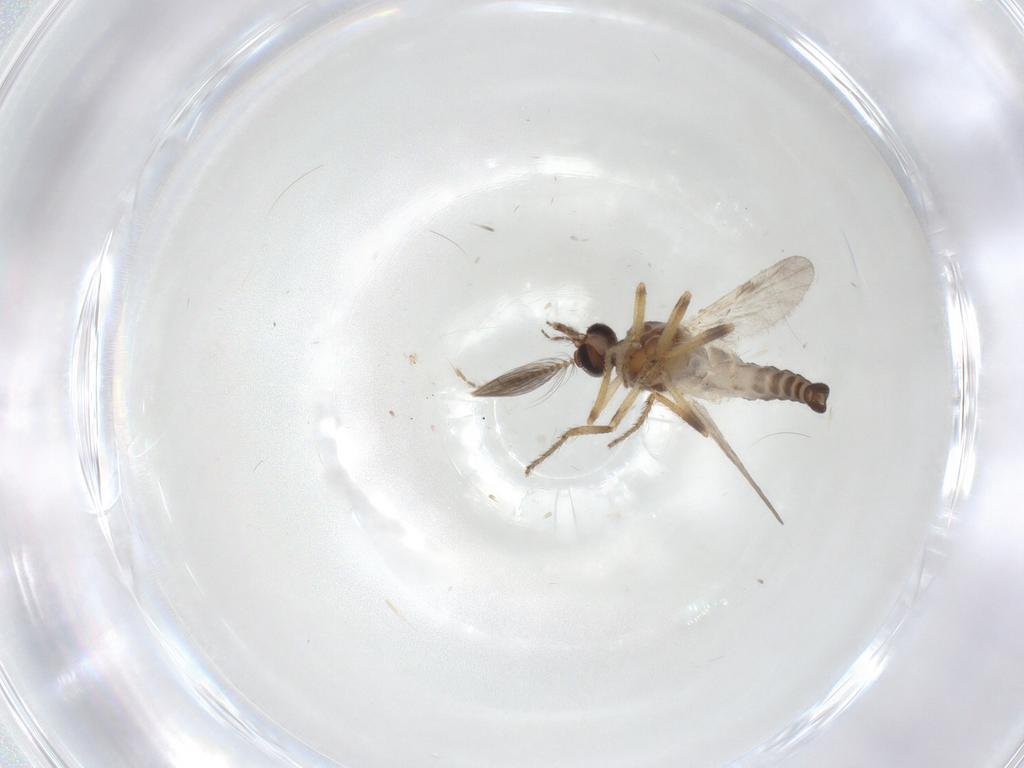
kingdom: Animalia
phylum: Arthropoda
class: Insecta
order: Diptera
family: Ceratopogonidae
